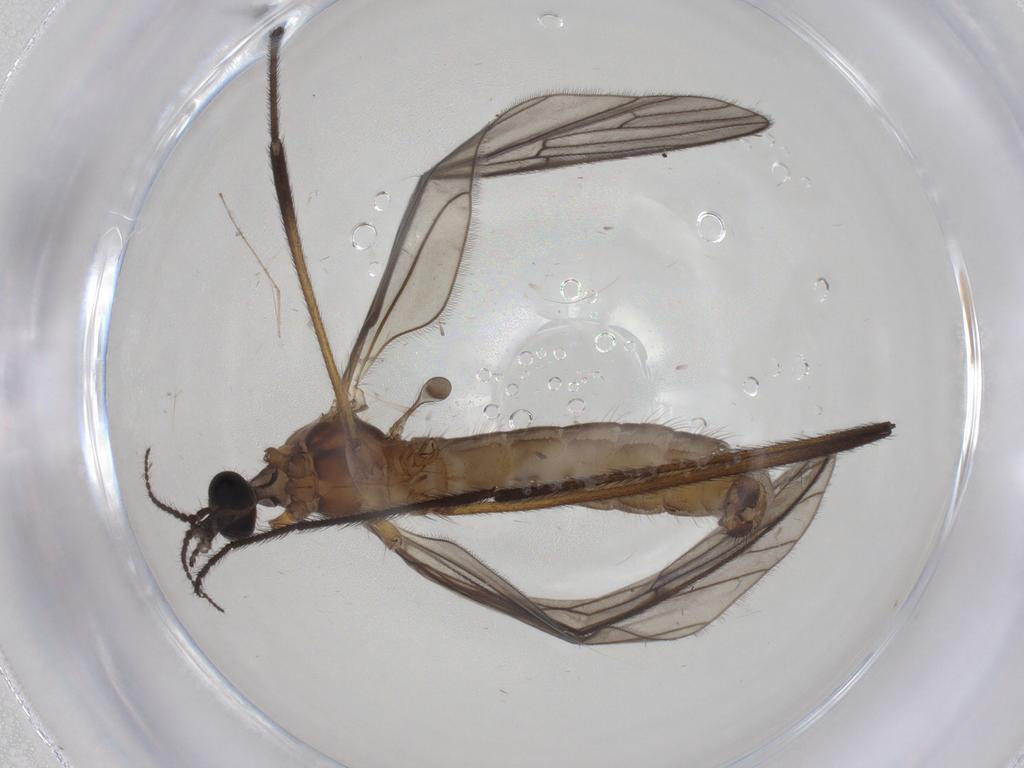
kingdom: Animalia
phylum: Arthropoda
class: Insecta
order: Diptera
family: Limoniidae
